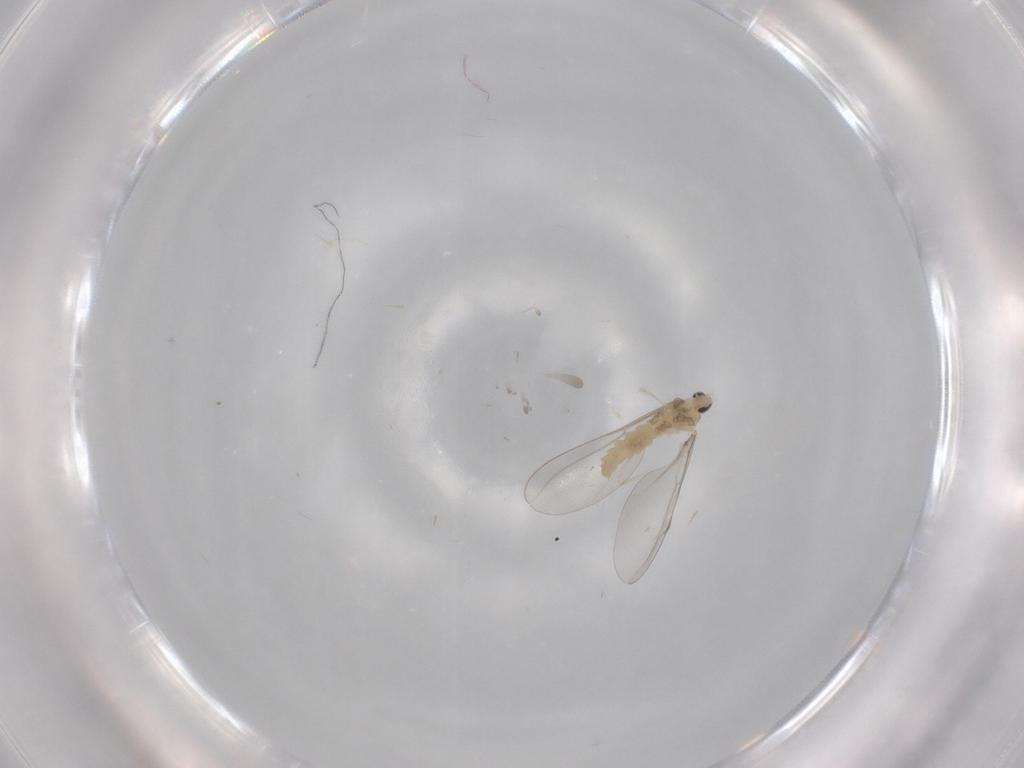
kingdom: Animalia
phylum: Arthropoda
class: Insecta
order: Diptera
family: Cecidomyiidae
